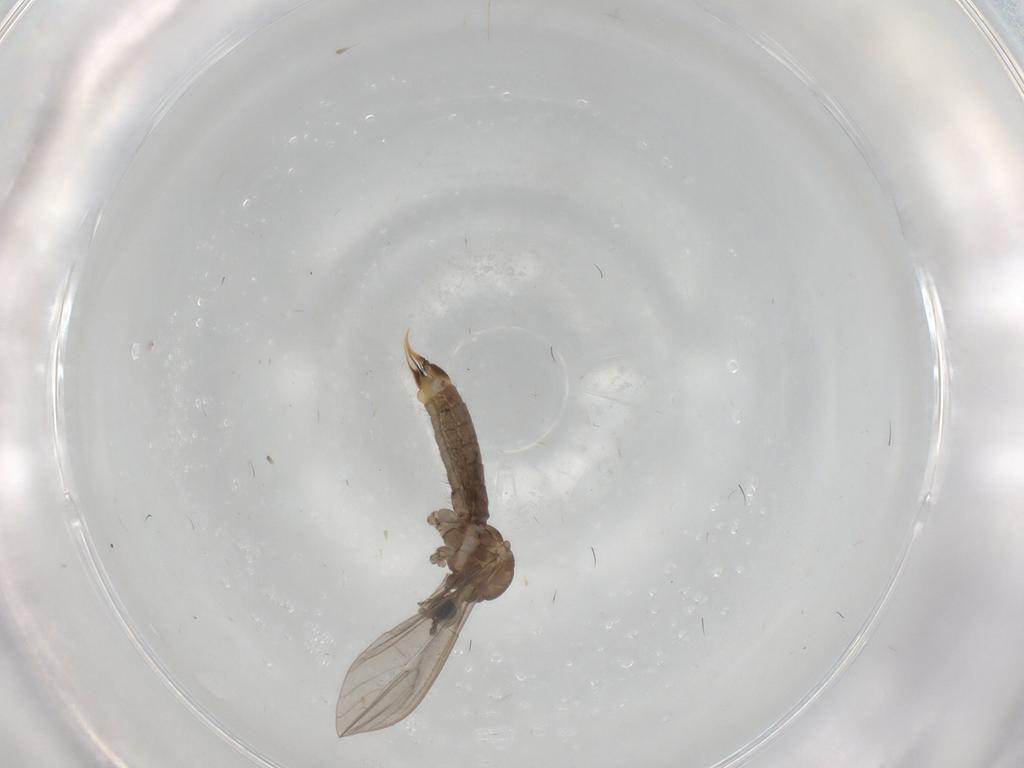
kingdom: Animalia
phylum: Arthropoda
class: Insecta
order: Diptera
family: Limoniidae
